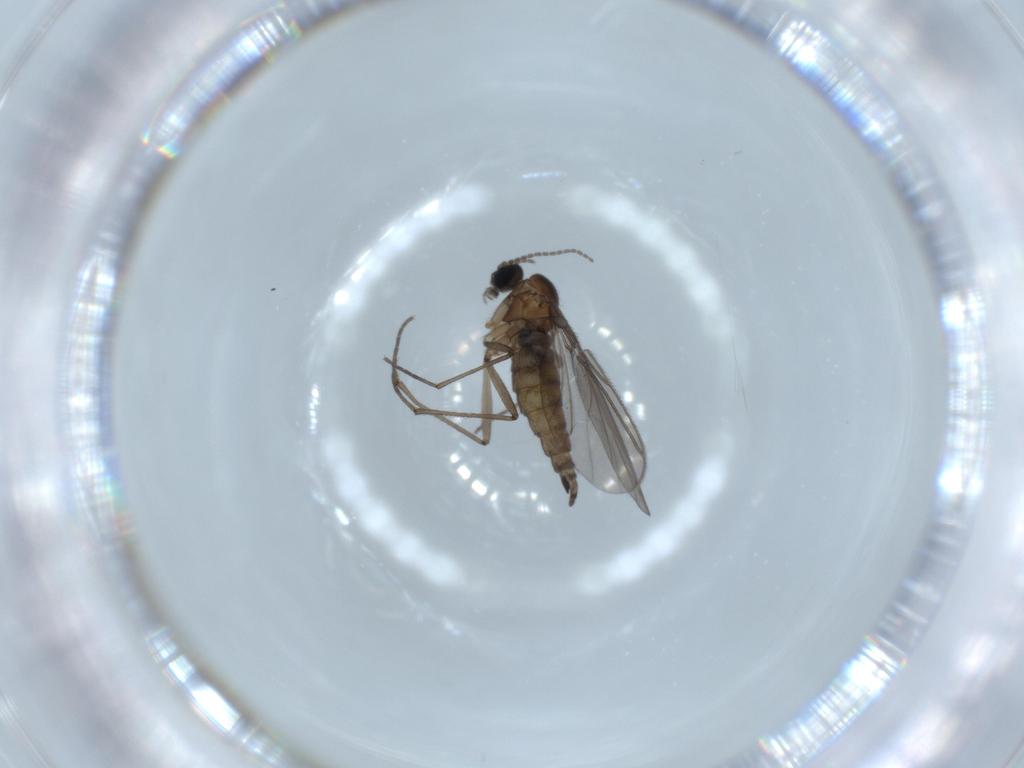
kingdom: Animalia
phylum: Arthropoda
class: Insecta
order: Diptera
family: Sciaridae
